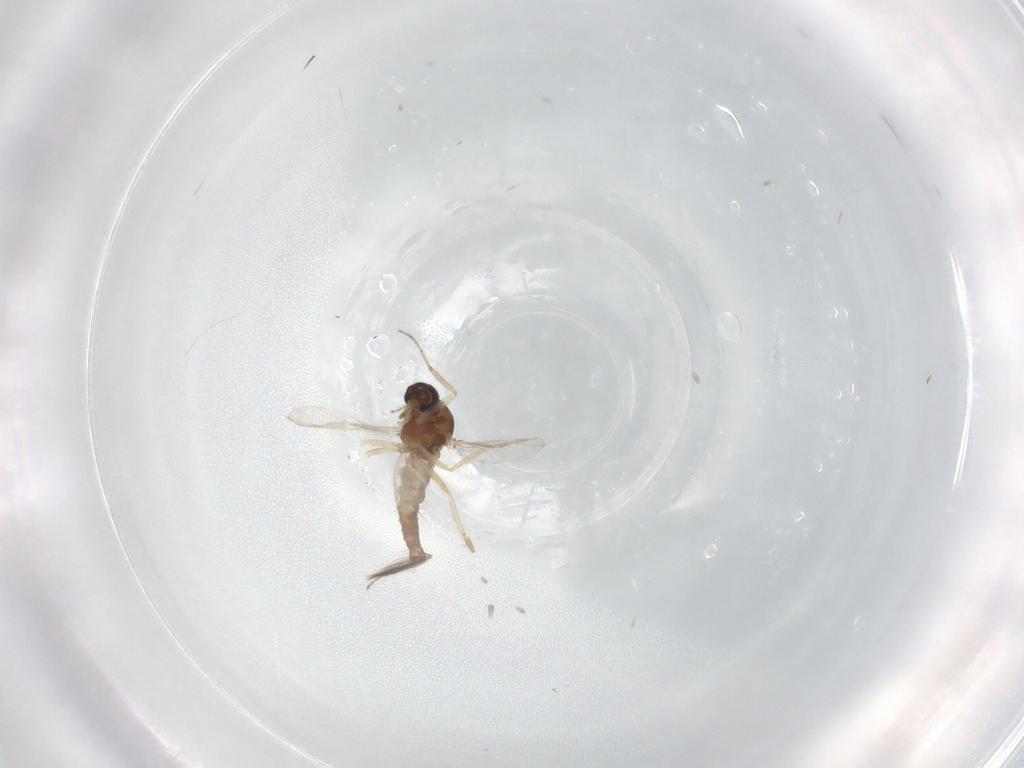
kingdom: Animalia
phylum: Arthropoda
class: Insecta
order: Diptera
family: Ceratopogonidae
